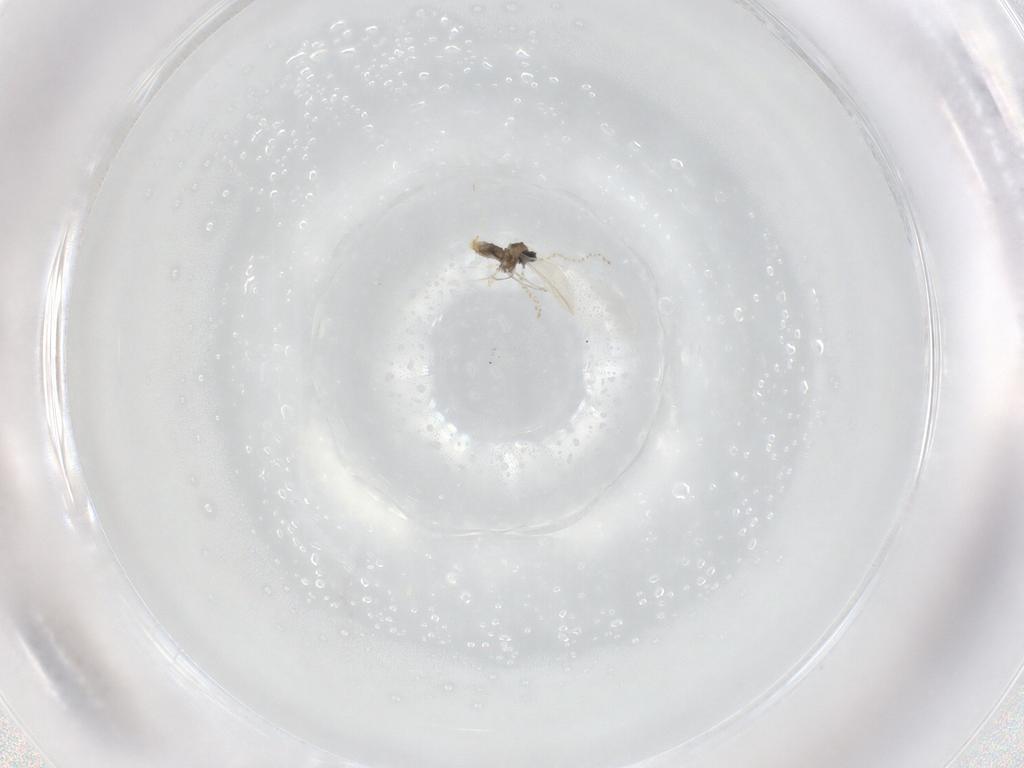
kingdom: Animalia
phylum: Arthropoda
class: Insecta
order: Diptera
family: Cecidomyiidae
